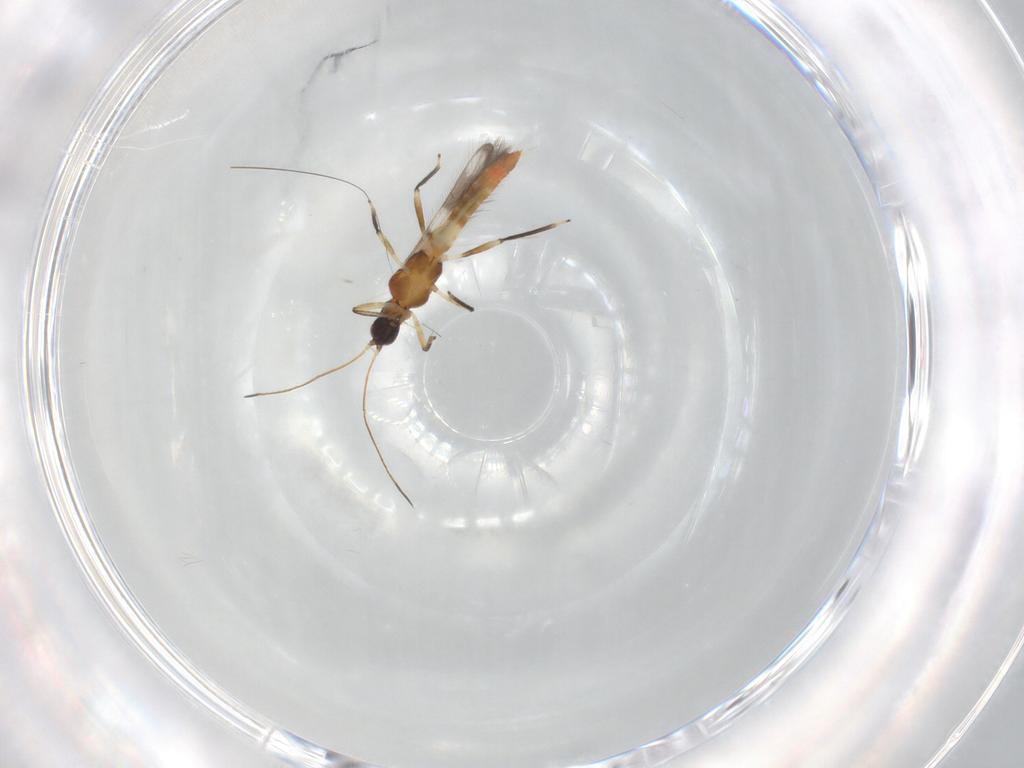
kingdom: Animalia
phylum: Arthropoda
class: Insecta
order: Thysanoptera
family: Aeolothripidae
